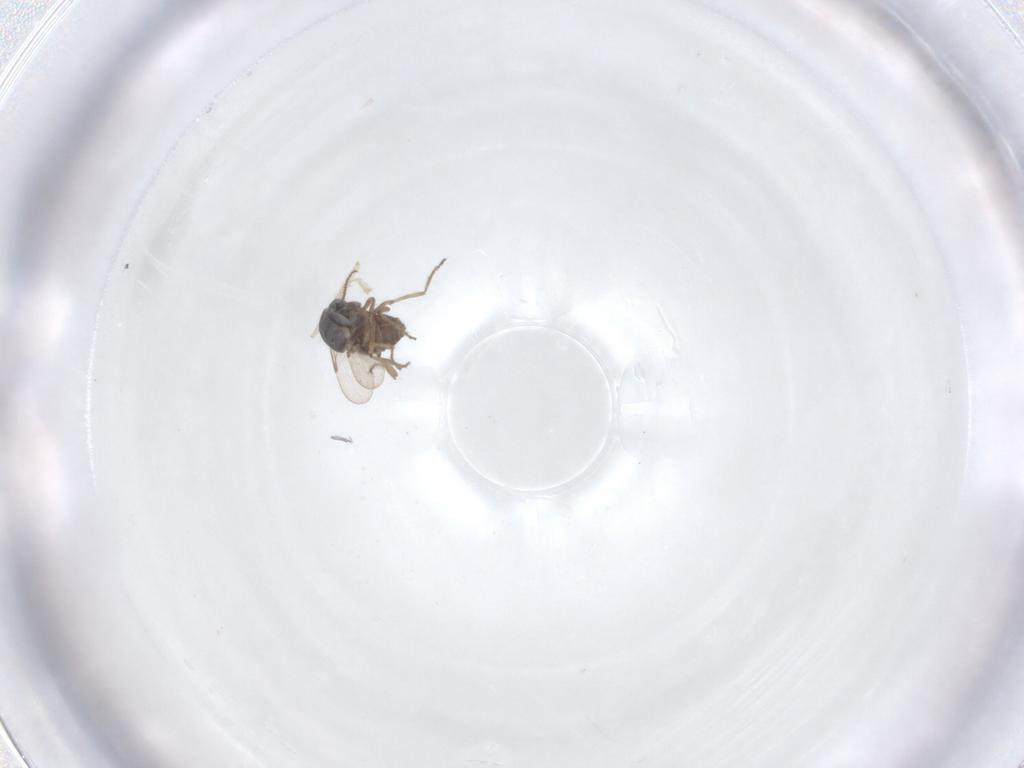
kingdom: Animalia
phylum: Arthropoda
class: Insecta
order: Diptera
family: Ceratopogonidae
